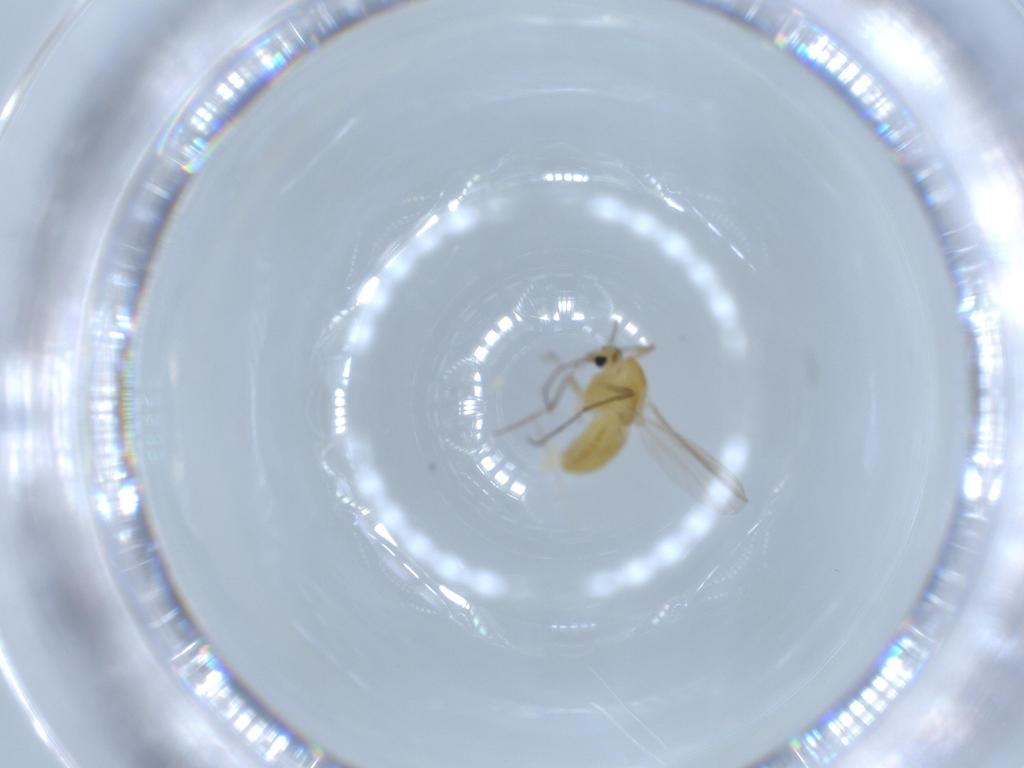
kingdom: Animalia
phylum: Arthropoda
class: Insecta
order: Diptera
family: Chironomidae
